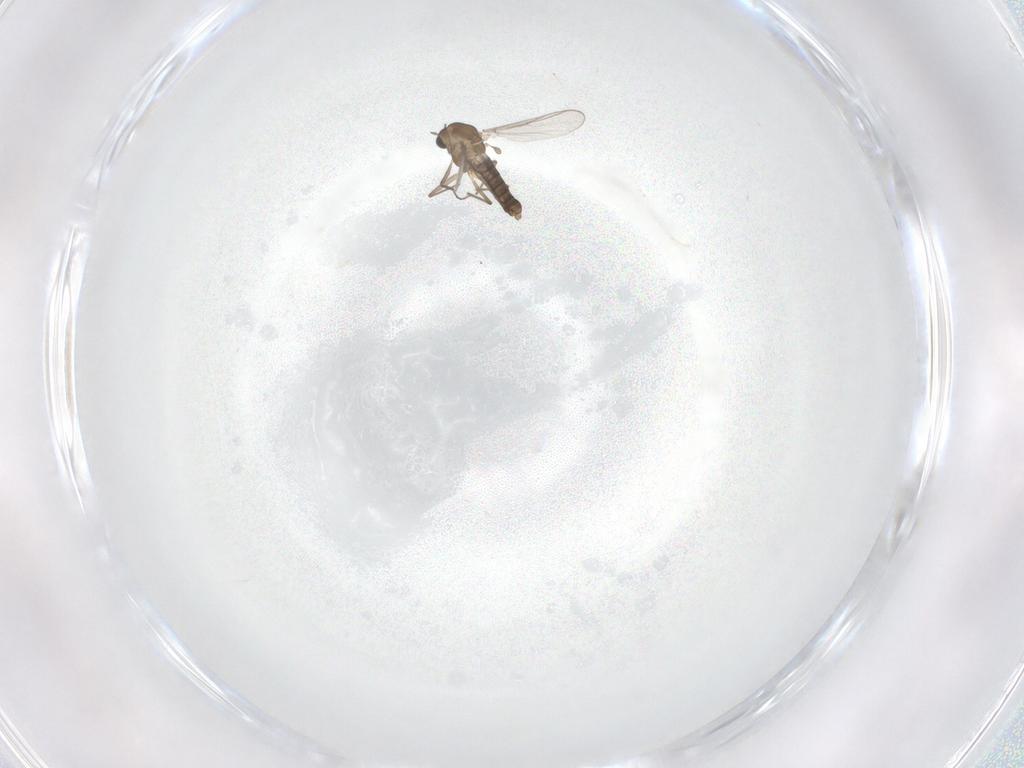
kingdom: Animalia
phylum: Arthropoda
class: Insecta
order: Diptera
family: Chironomidae
